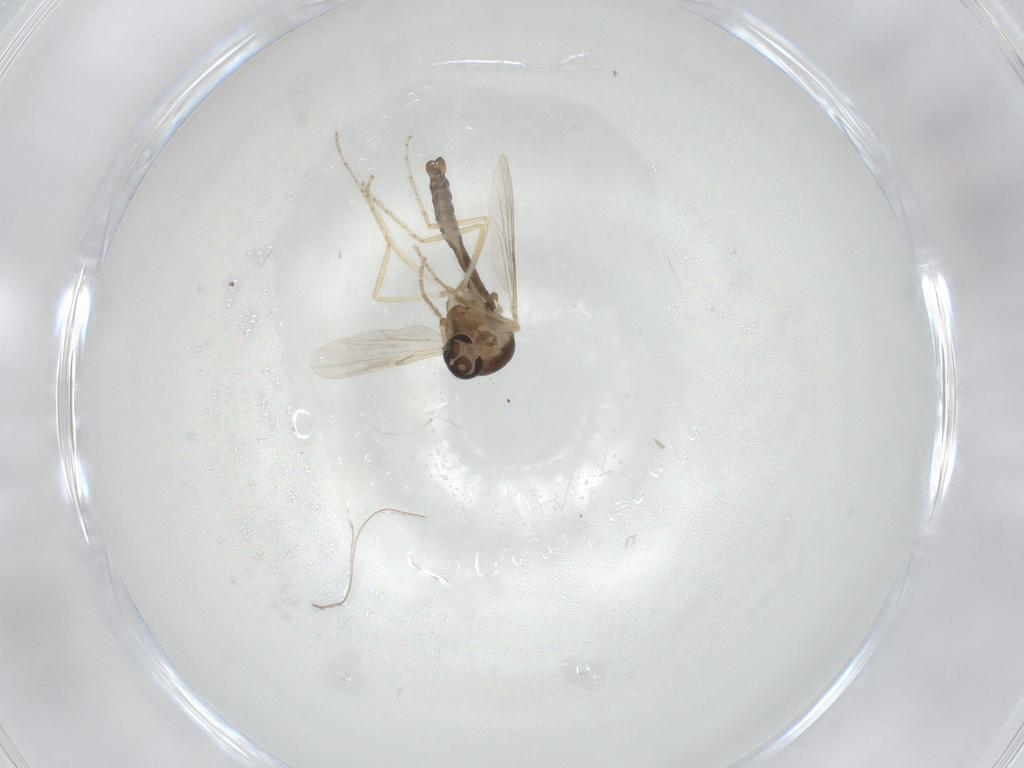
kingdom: Animalia
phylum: Arthropoda
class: Insecta
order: Diptera
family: Ceratopogonidae
